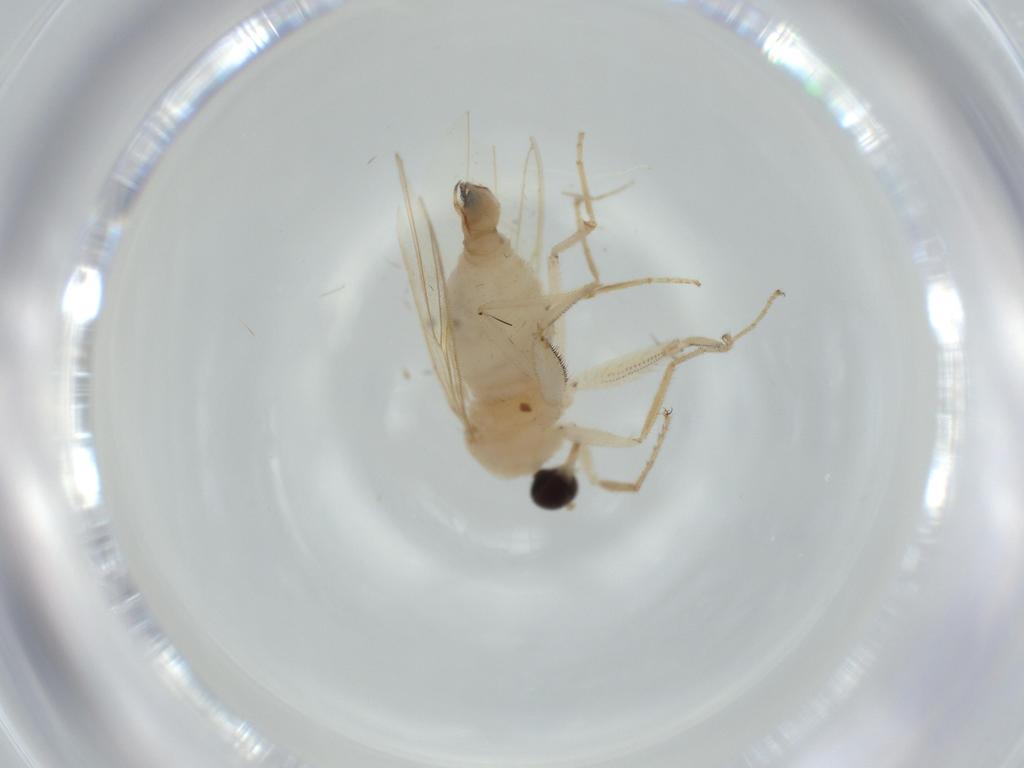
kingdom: Animalia
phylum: Arthropoda
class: Insecta
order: Diptera
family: Hybotidae
